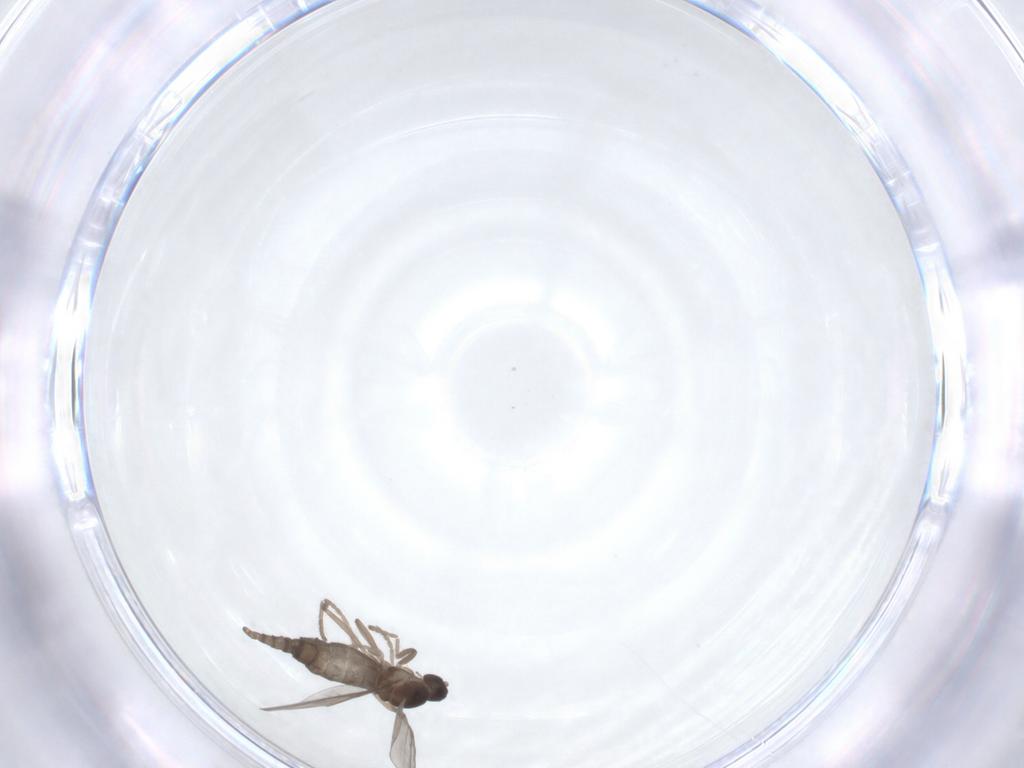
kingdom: Animalia
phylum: Arthropoda
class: Insecta
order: Diptera
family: Cecidomyiidae
